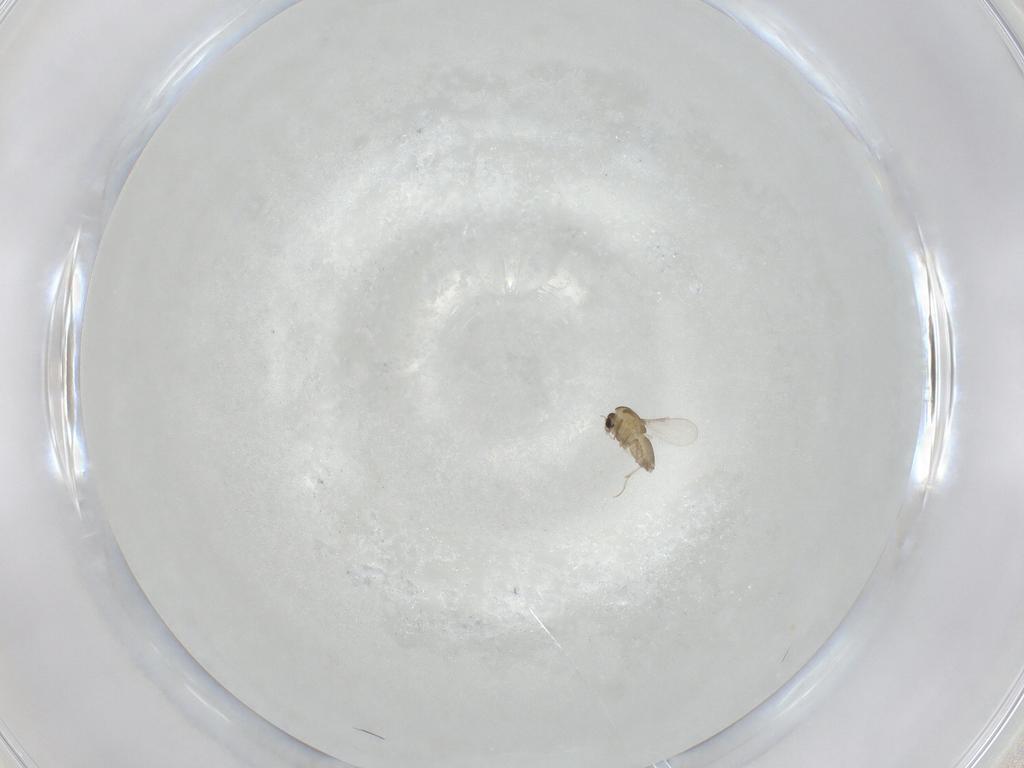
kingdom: Animalia
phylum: Arthropoda
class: Insecta
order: Diptera
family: Chironomidae
